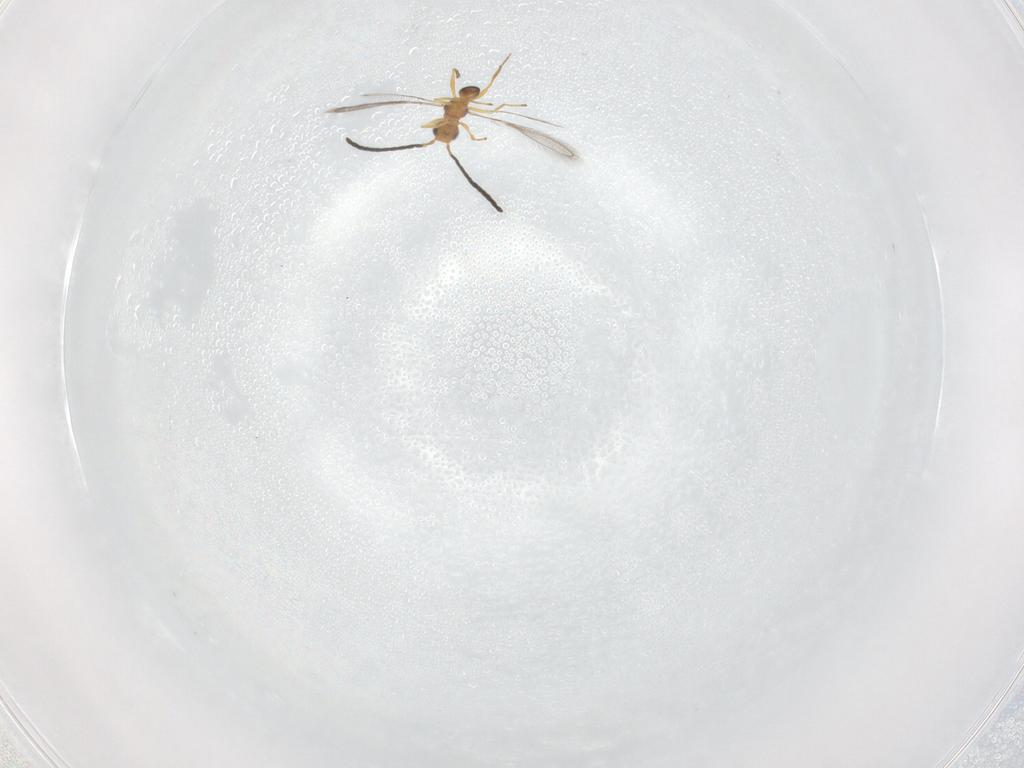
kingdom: Animalia
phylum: Arthropoda
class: Insecta
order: Hymenoptera
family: Mymaridae
